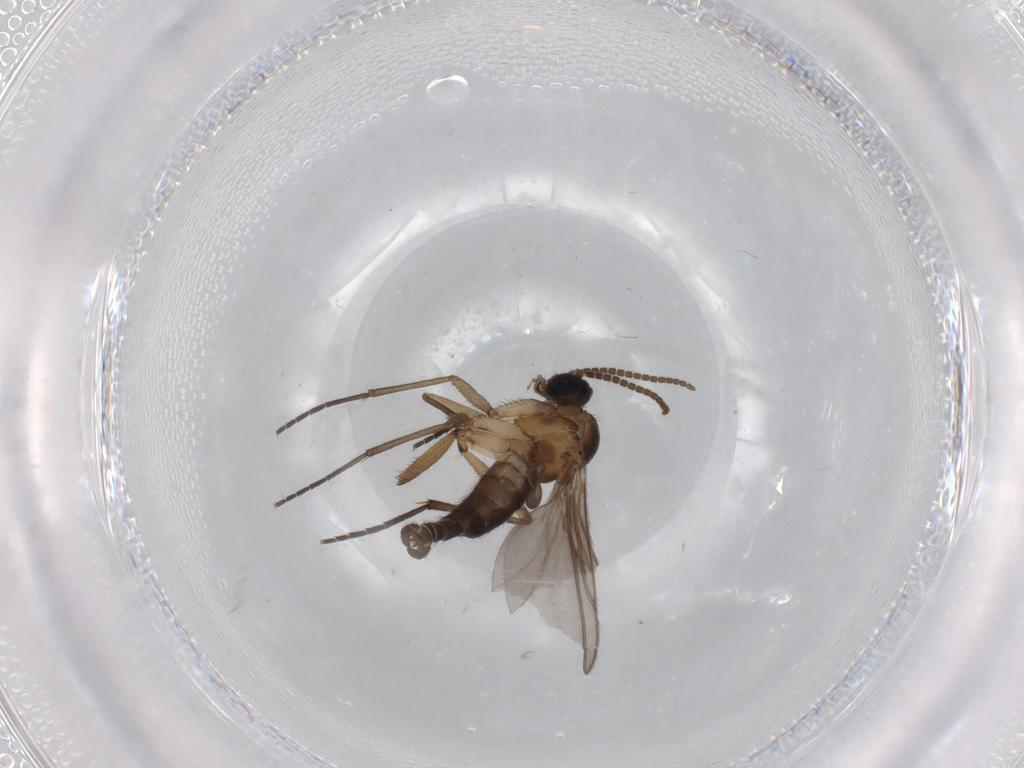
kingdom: Animalia
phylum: Arthropoda
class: Insecta
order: Diptera
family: Cecidomyiidae
